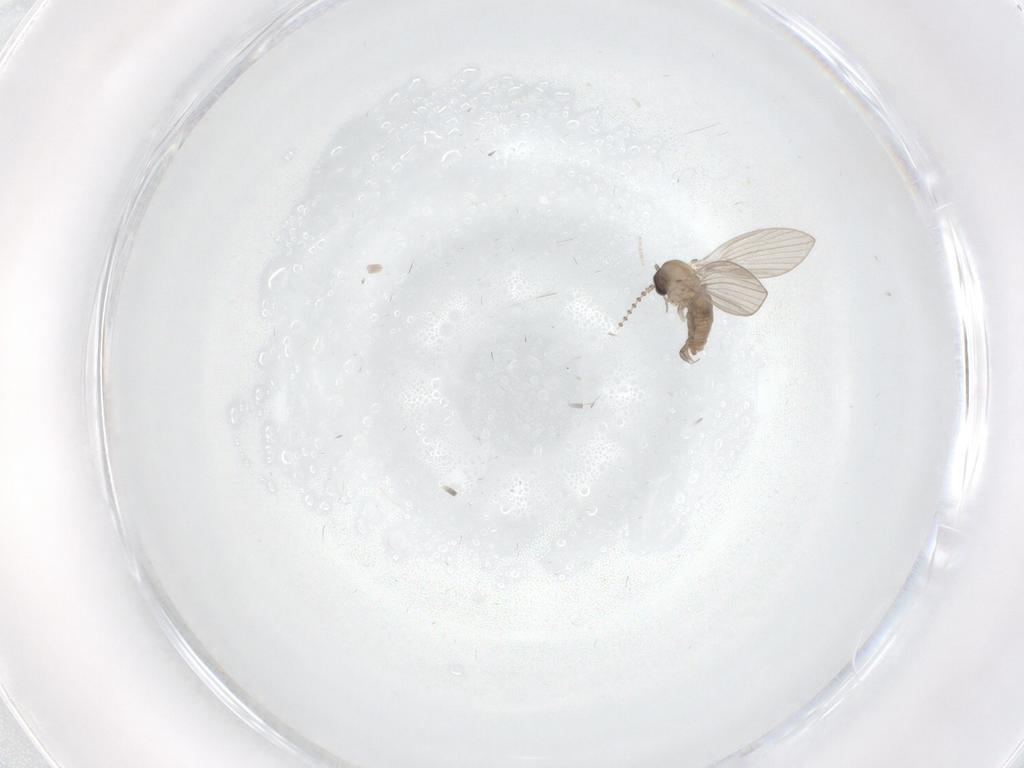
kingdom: Animalia
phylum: Arthropoda
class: Insecta
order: Diptera
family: Psychodidae
